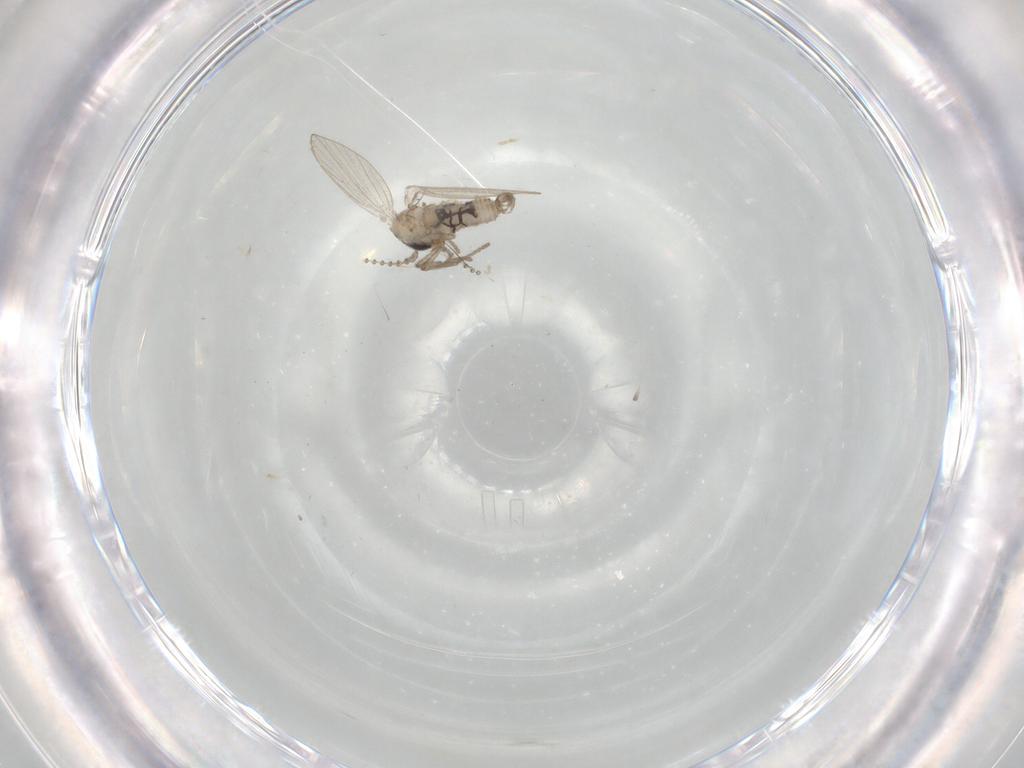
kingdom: Animalia
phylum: Arthropoda
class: Insecta
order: Diptera
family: Psychodidae
